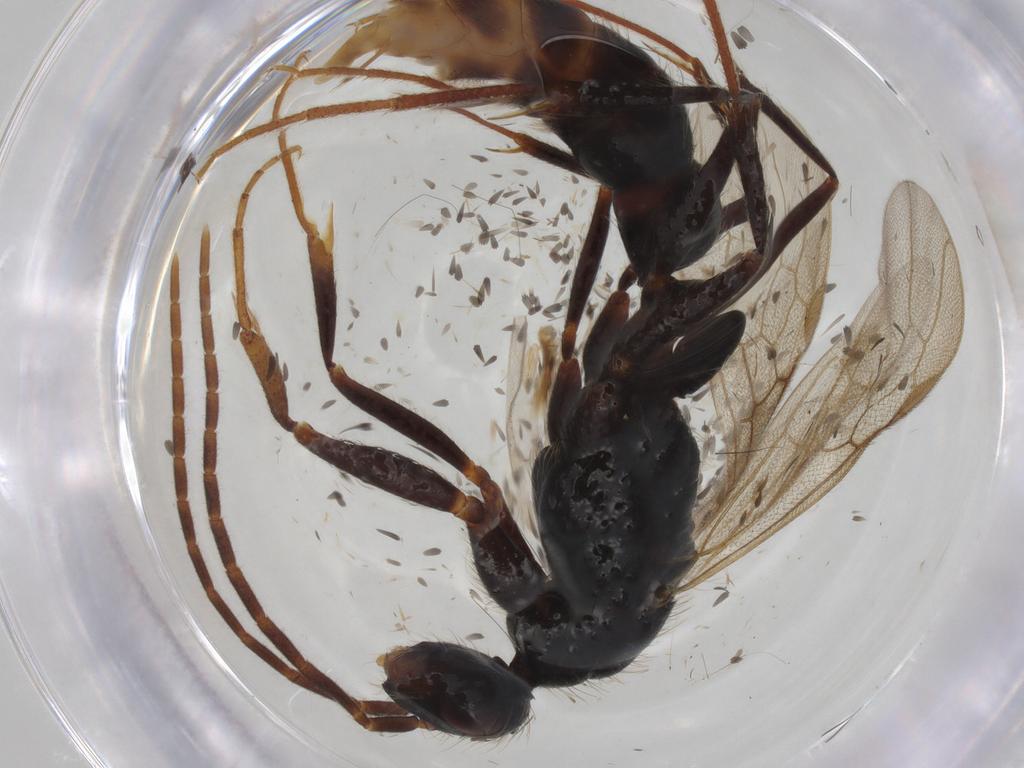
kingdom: Animalia
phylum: Arthropoda
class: Insecta
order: Hymenoptera
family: Formicidae
